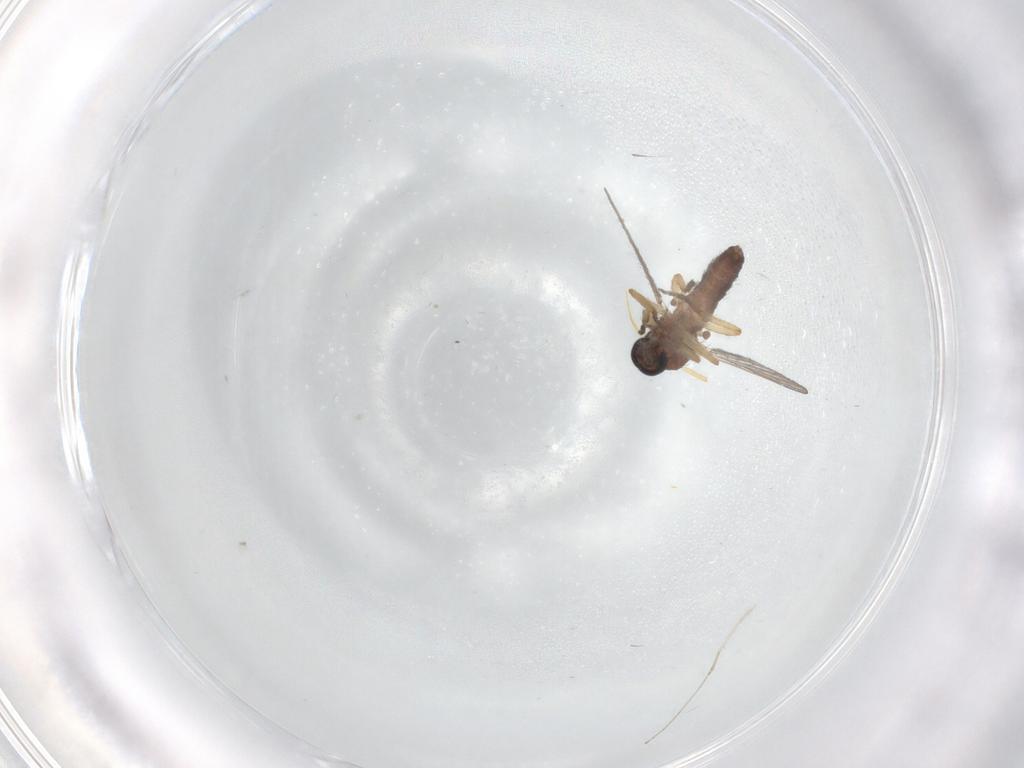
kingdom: Animalia
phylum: Arthropoda
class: Insecta
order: Diptera
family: Ceratopogonidae
